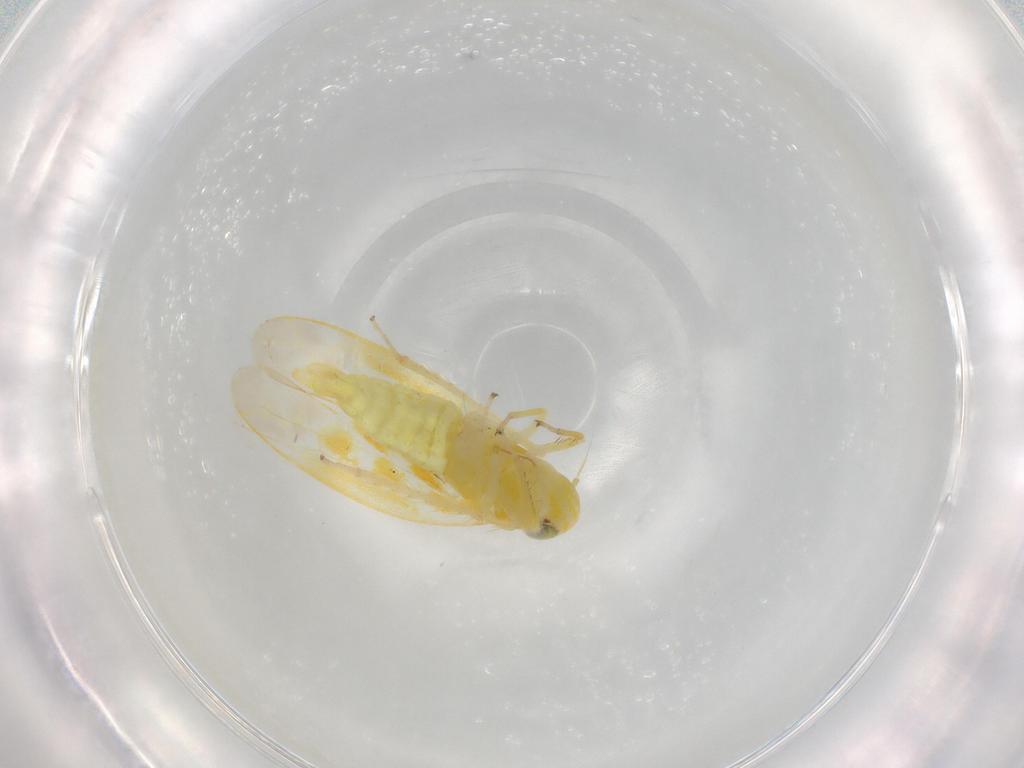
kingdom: Animalia
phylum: Arthropoda
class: Insecta
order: Hemiptera
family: Cicadellidae
